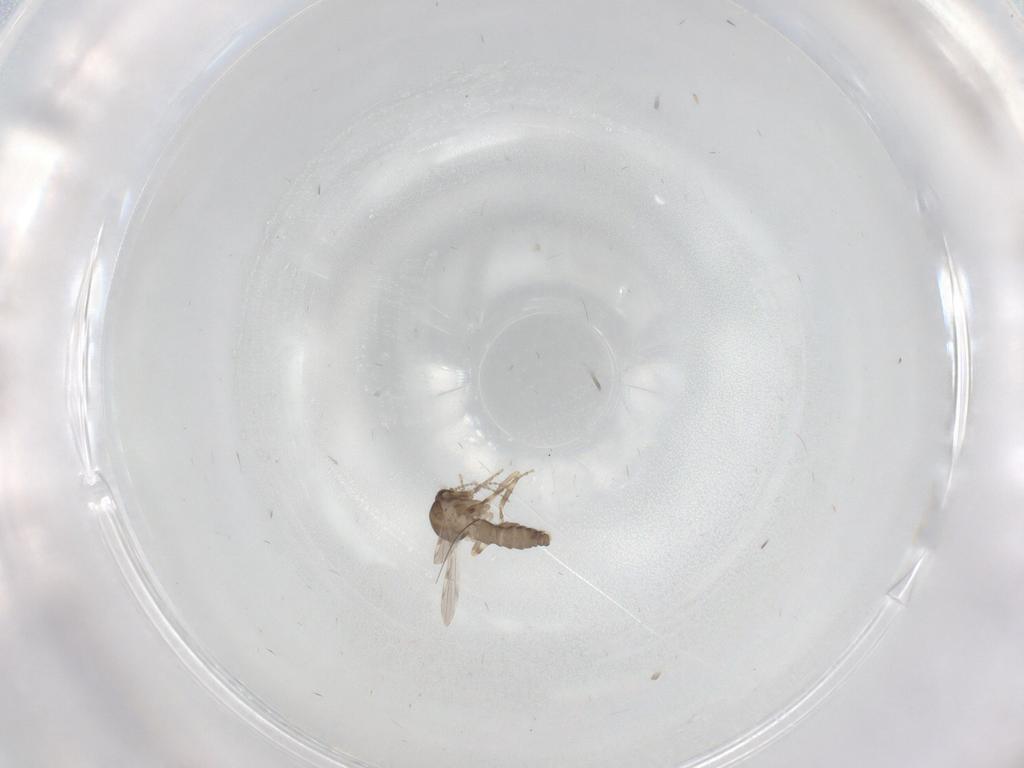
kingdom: Animalia
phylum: Arthropoda
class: Insecta
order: Diptera
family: Ceratopogonidae
